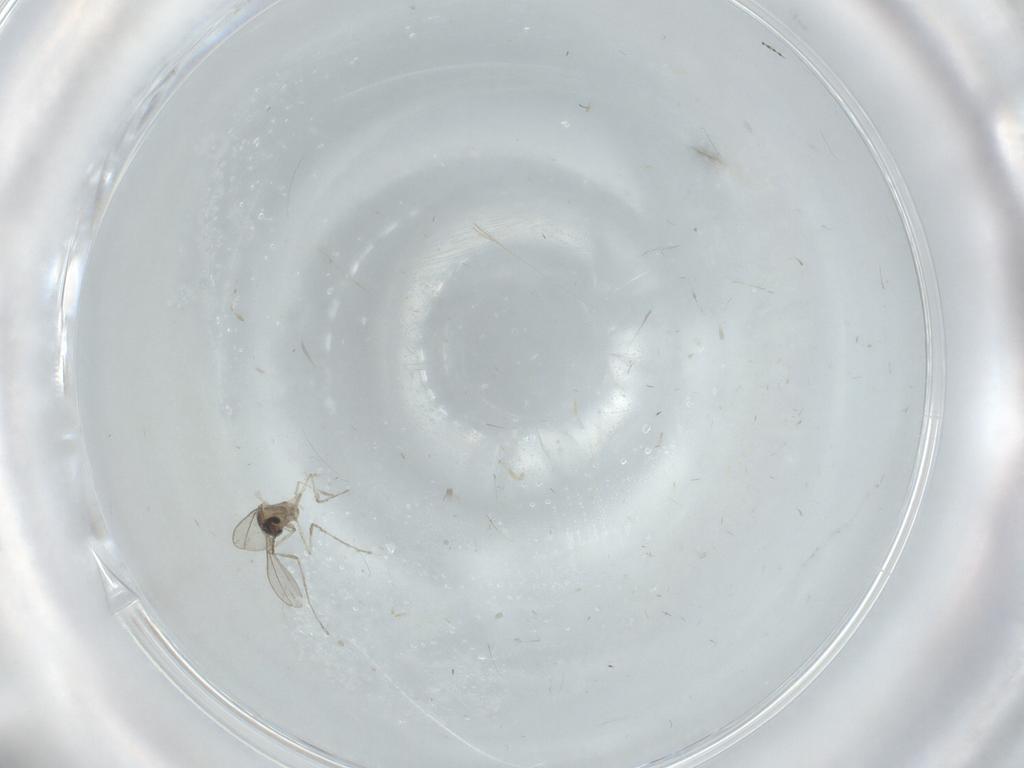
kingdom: Animalia
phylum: Arthropoda
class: Insecta
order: Diptera
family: Cecidomyiidae
